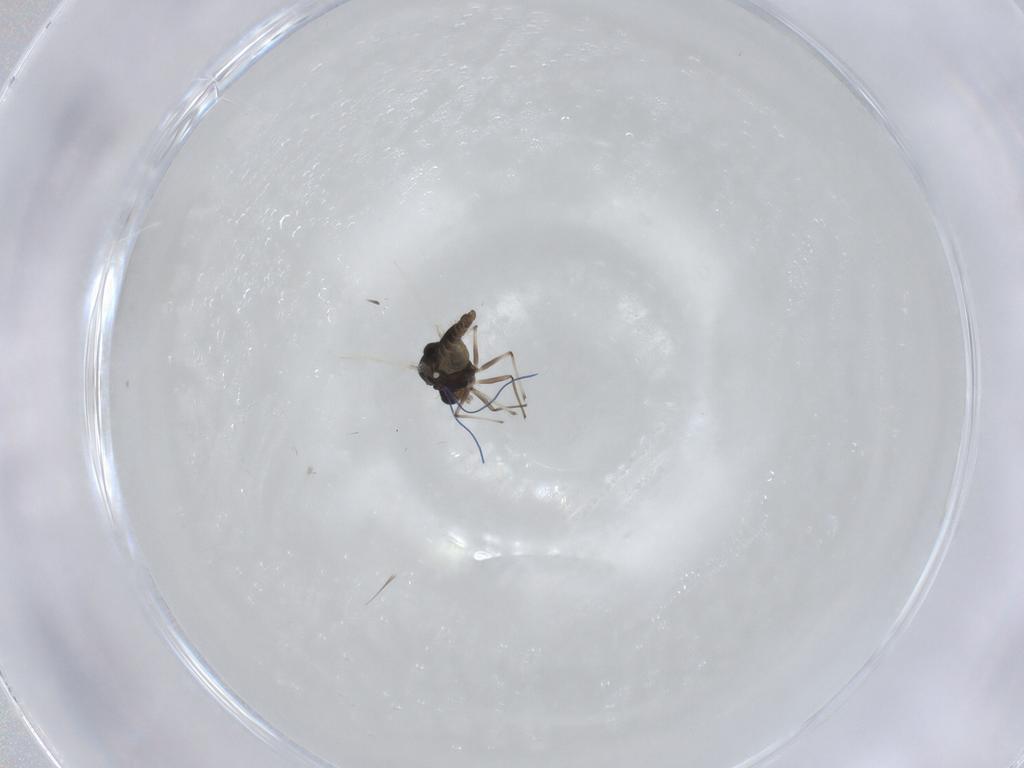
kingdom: Animalia
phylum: Arthropoda
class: Insecta
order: Diptera
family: Chironomidae
